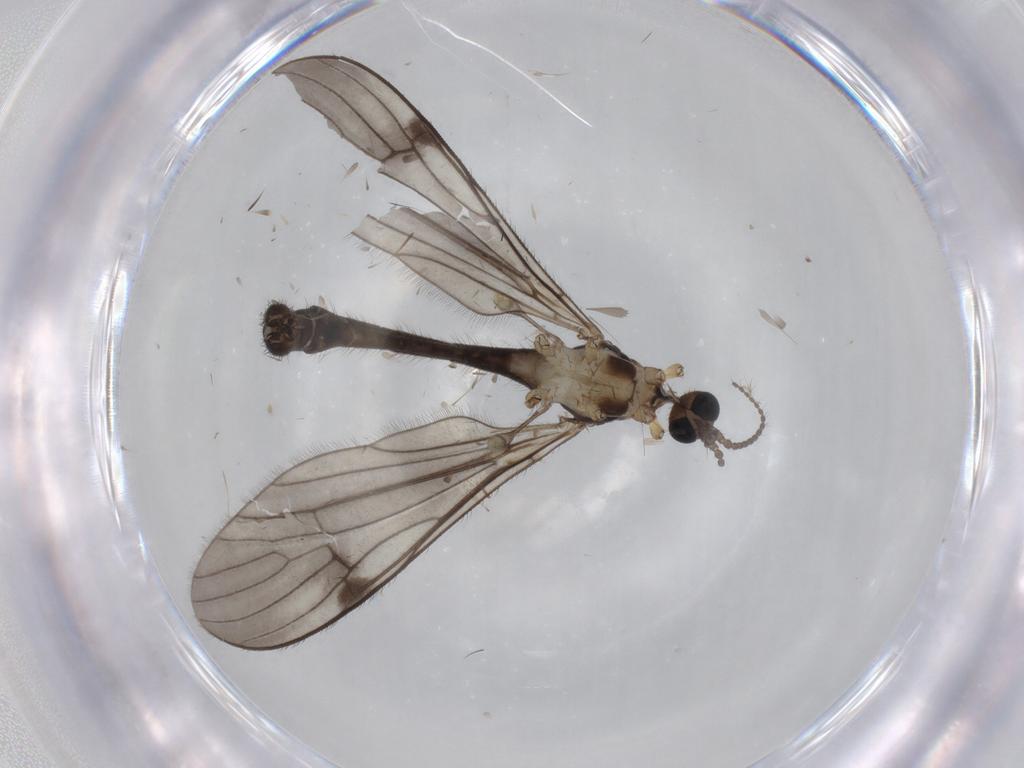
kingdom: Animalia
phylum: Arthropoda
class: Insecta
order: Diptera
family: Limoniidae
